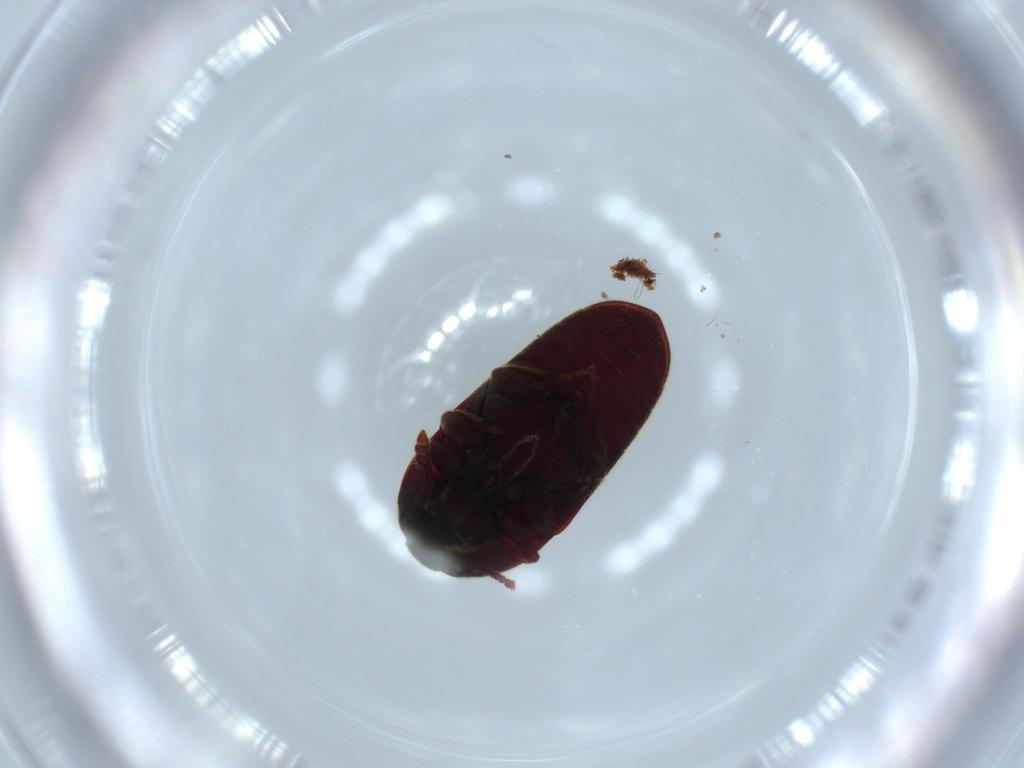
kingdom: Animalia
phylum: Arthropoda
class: Insecta
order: Coleoptera
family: Throscidae
